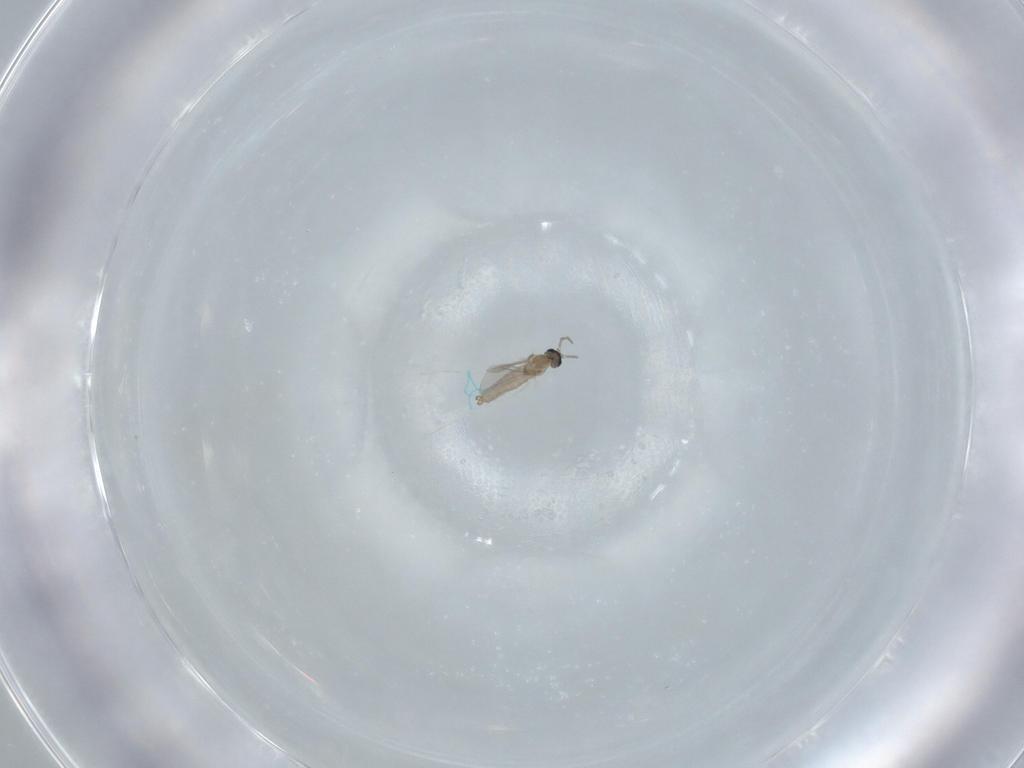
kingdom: Animalia
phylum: Arthropoda
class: Insecta
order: Diptera
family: Cecidomyiidae
